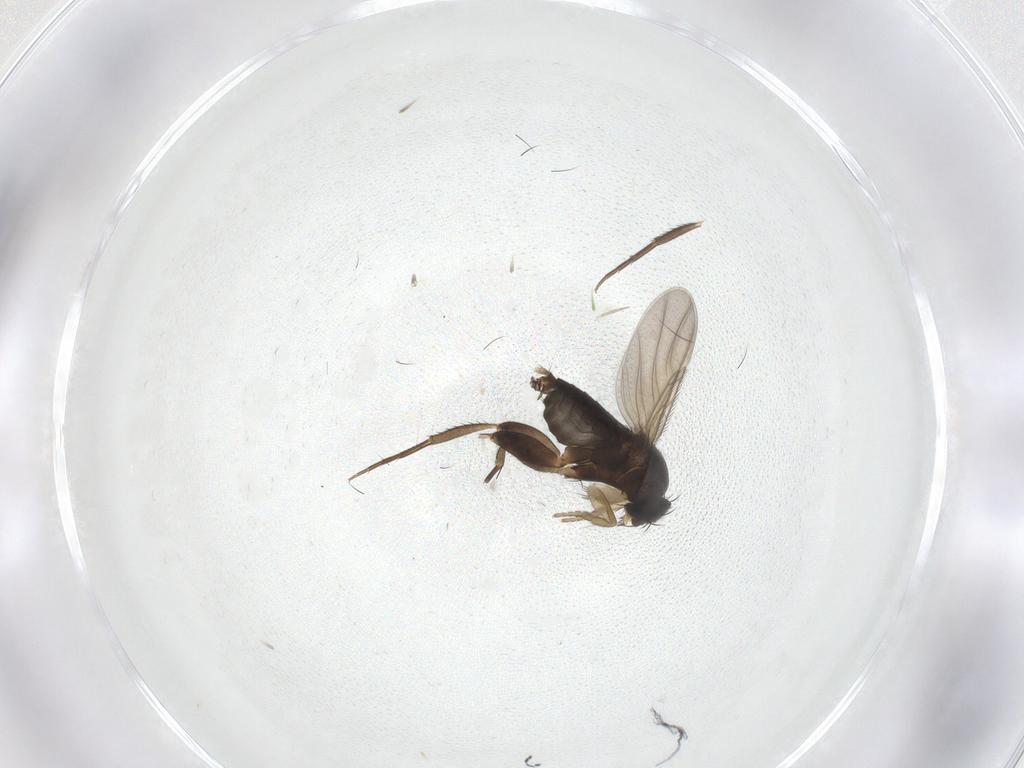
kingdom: Animalia
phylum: Arthropoda
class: Insecta
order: Diptera
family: Phoridae
